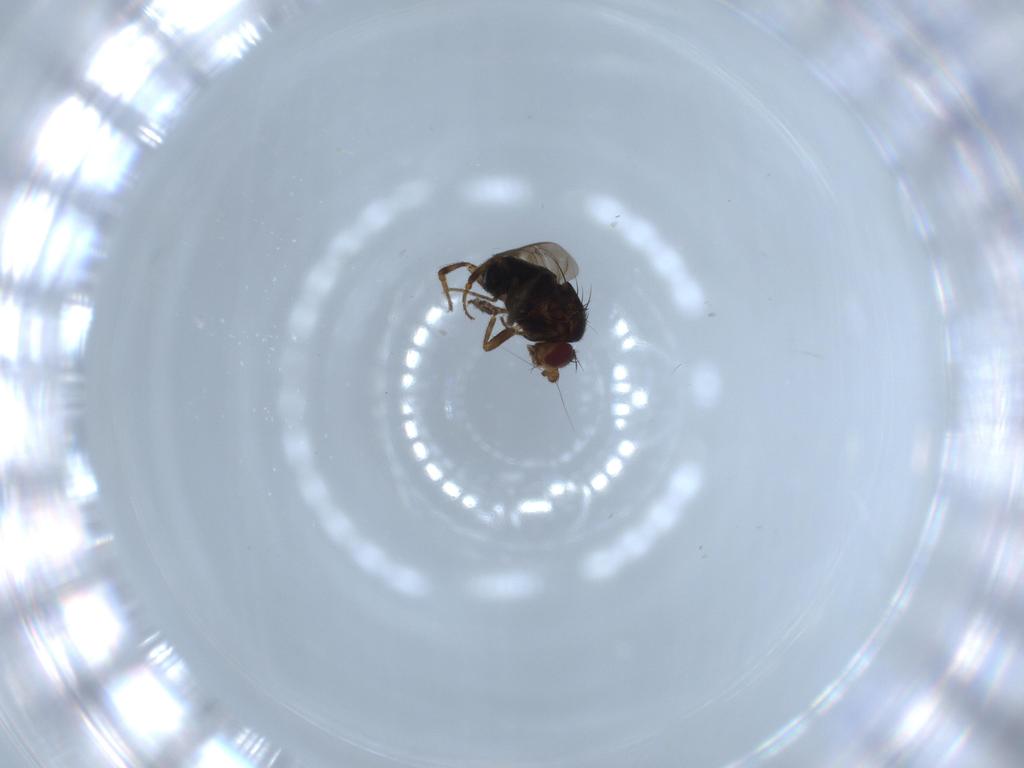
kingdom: Animalia
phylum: Arthropoda
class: Insecta
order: Diptera
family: Sphaeroceridae
